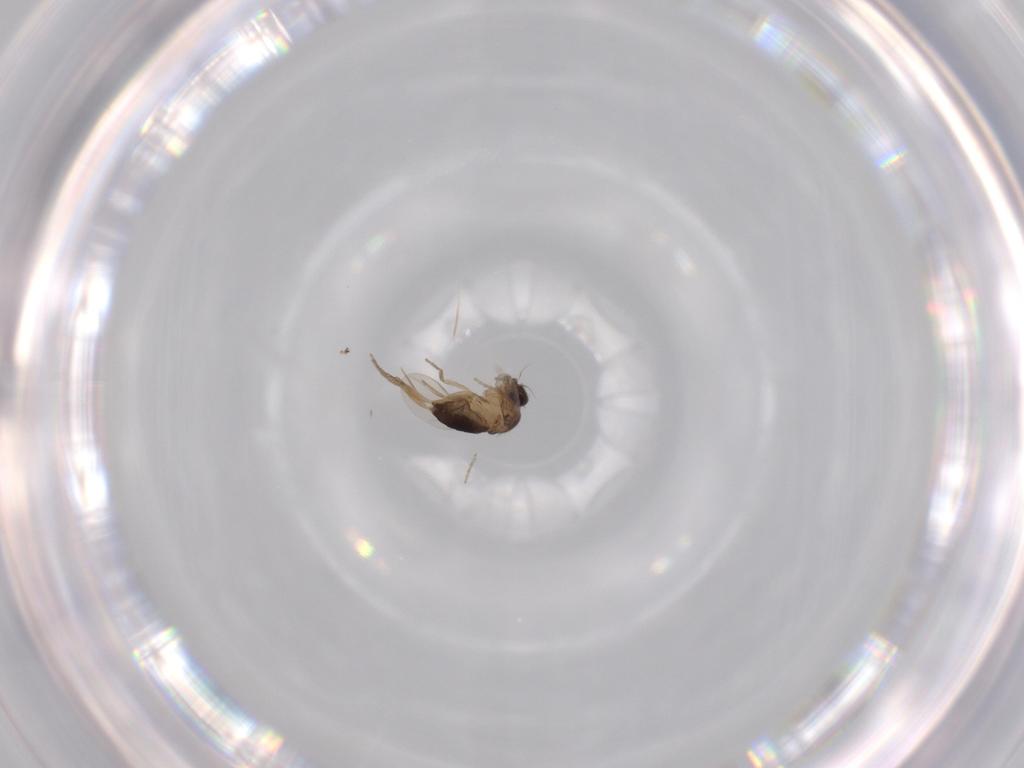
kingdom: Animalia
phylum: Arthropoda
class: Insecta
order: Diptera
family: Phoridae
